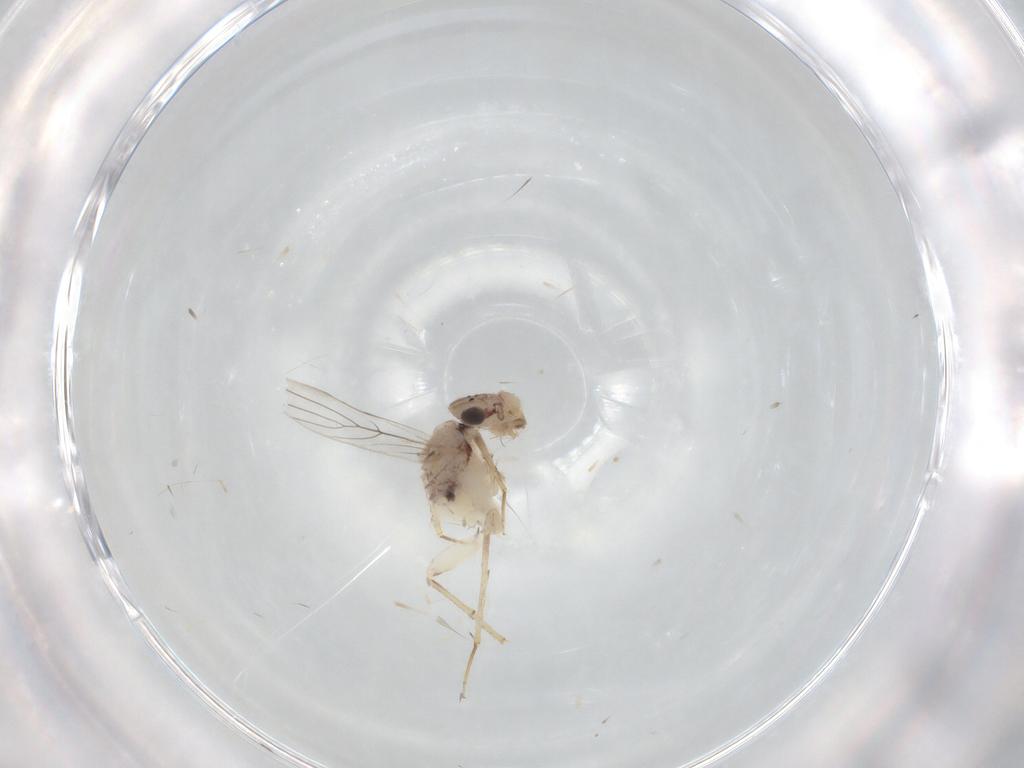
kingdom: Animalia
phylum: Arthropoda
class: Insecta
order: Psocodea
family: Lepidopsocidae
